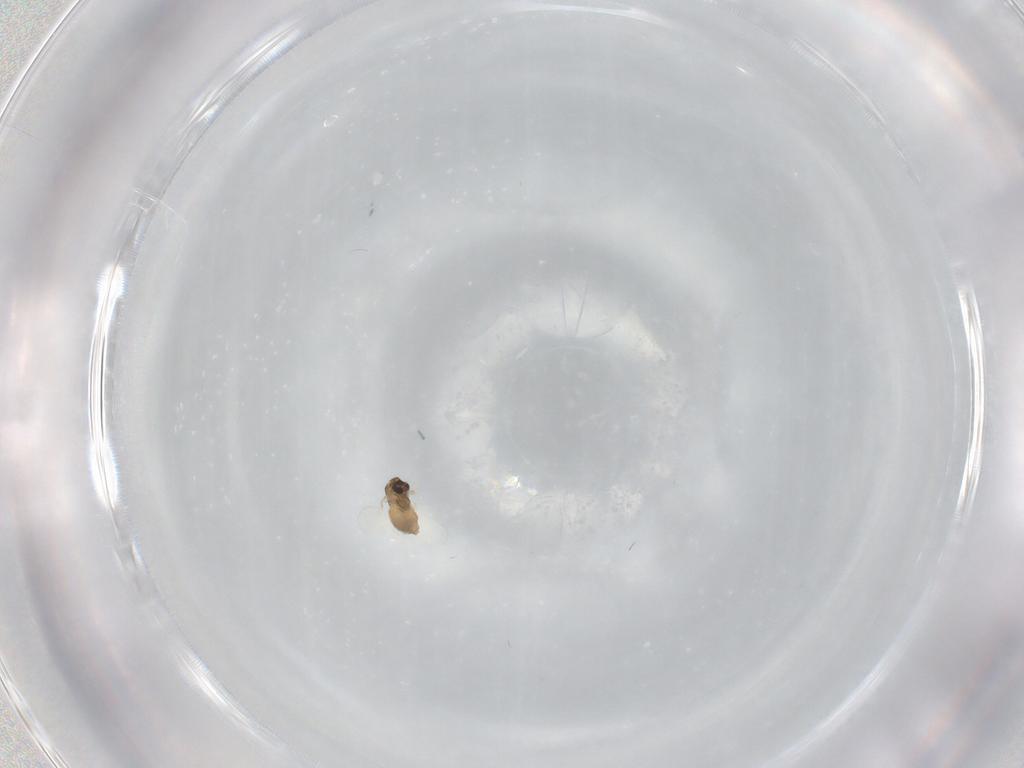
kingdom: Animalia
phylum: Arthropoda
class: Insecta
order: Diptera
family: Chironomidae
